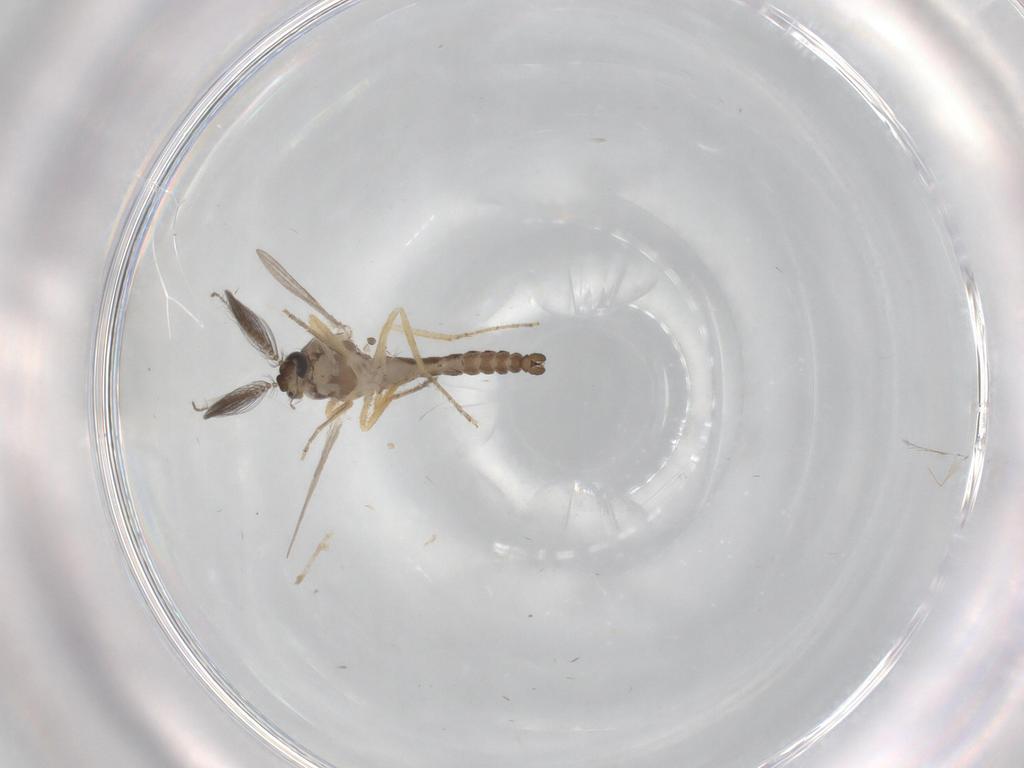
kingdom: Animalia
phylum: Arthropoda
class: Insecta
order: Diptera
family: Ceratopogonidae
